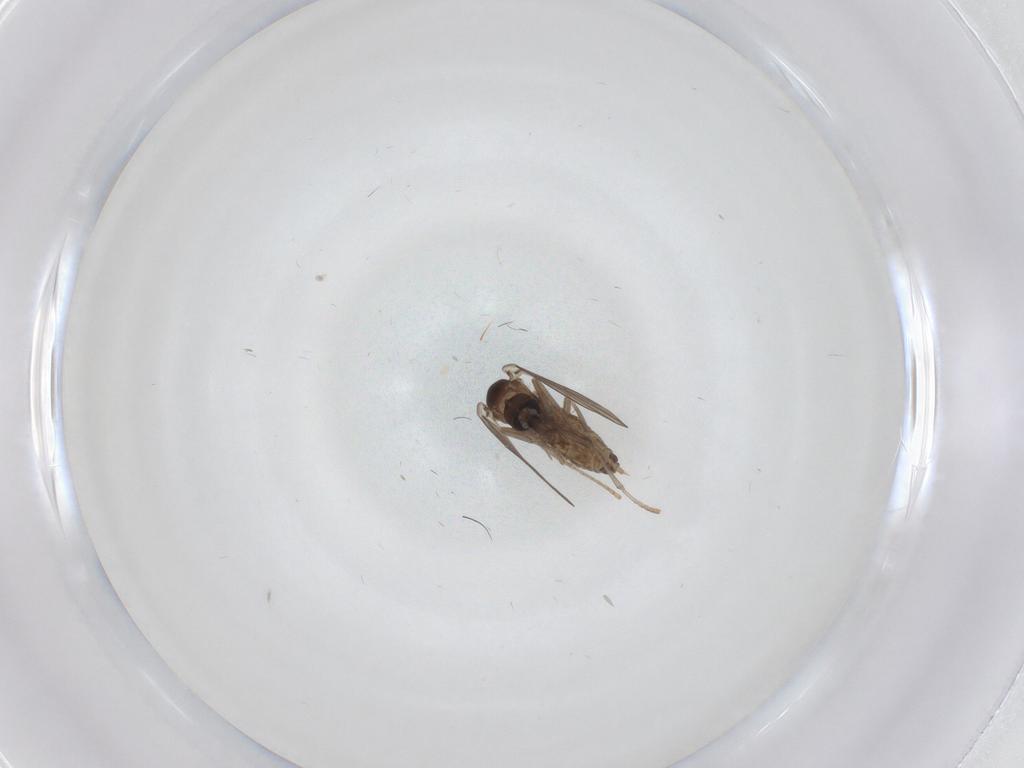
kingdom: Animalia
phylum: Arthropoda
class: Insecta
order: Diptera
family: Psychodidae
